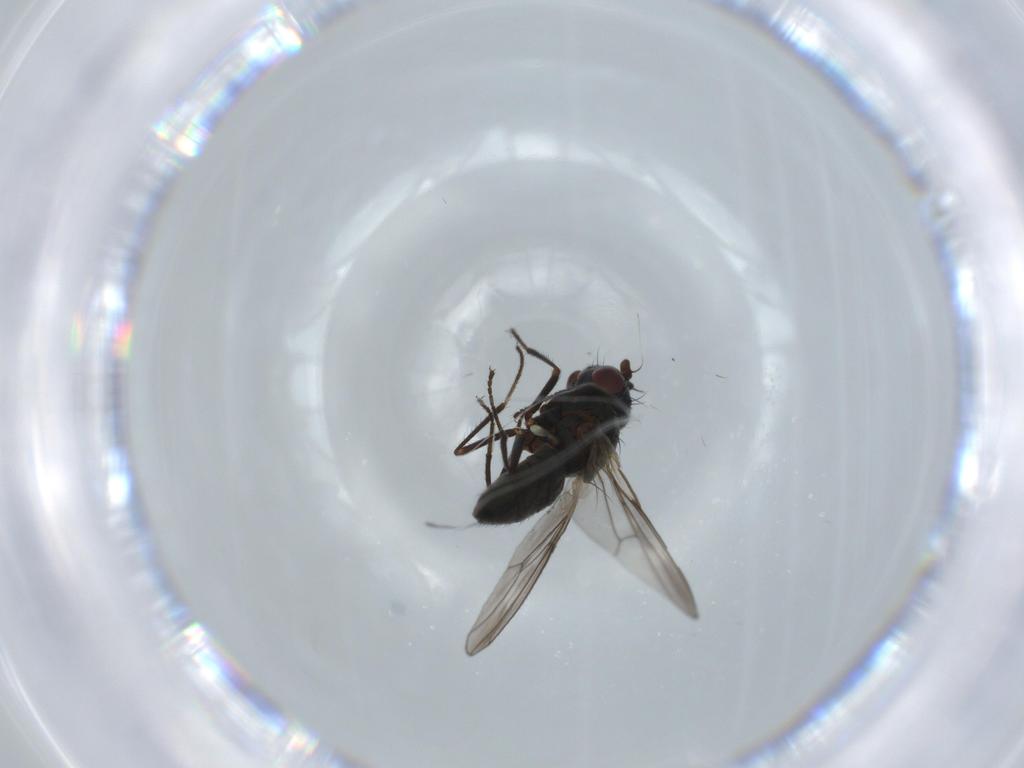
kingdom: Animalia
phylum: Arthropoda
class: Insecta
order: Diptera
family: Ephydridae
